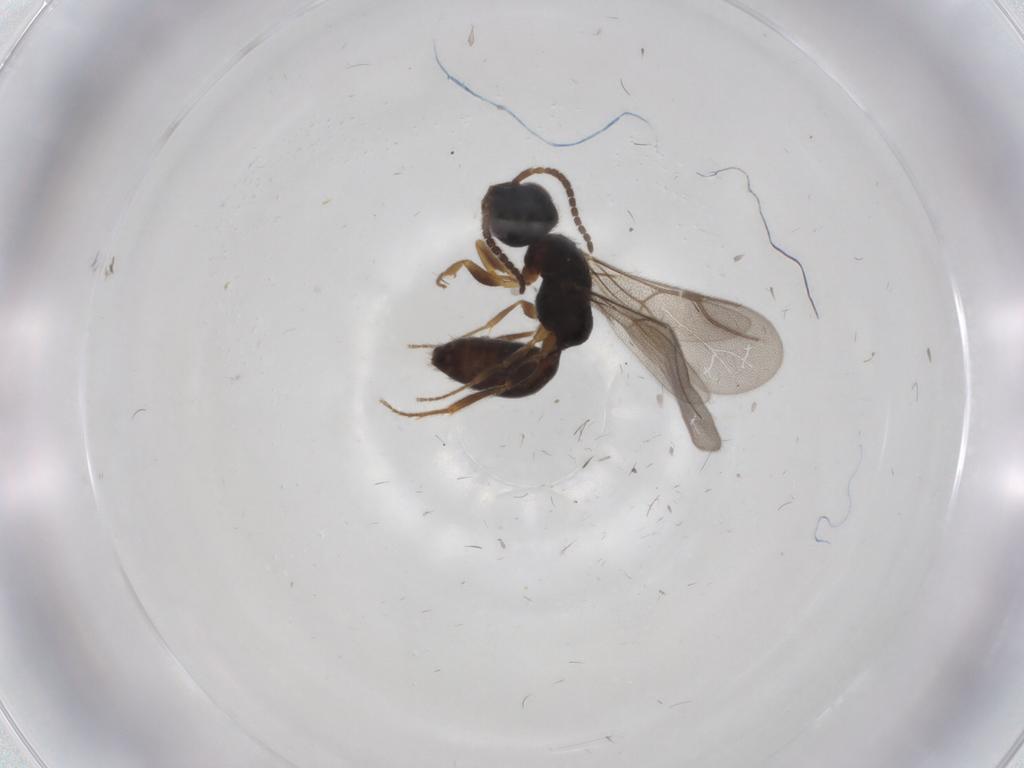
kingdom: Animalia
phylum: Arthropoda
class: Insecta
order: Hymenoptera
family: Bethylidae
